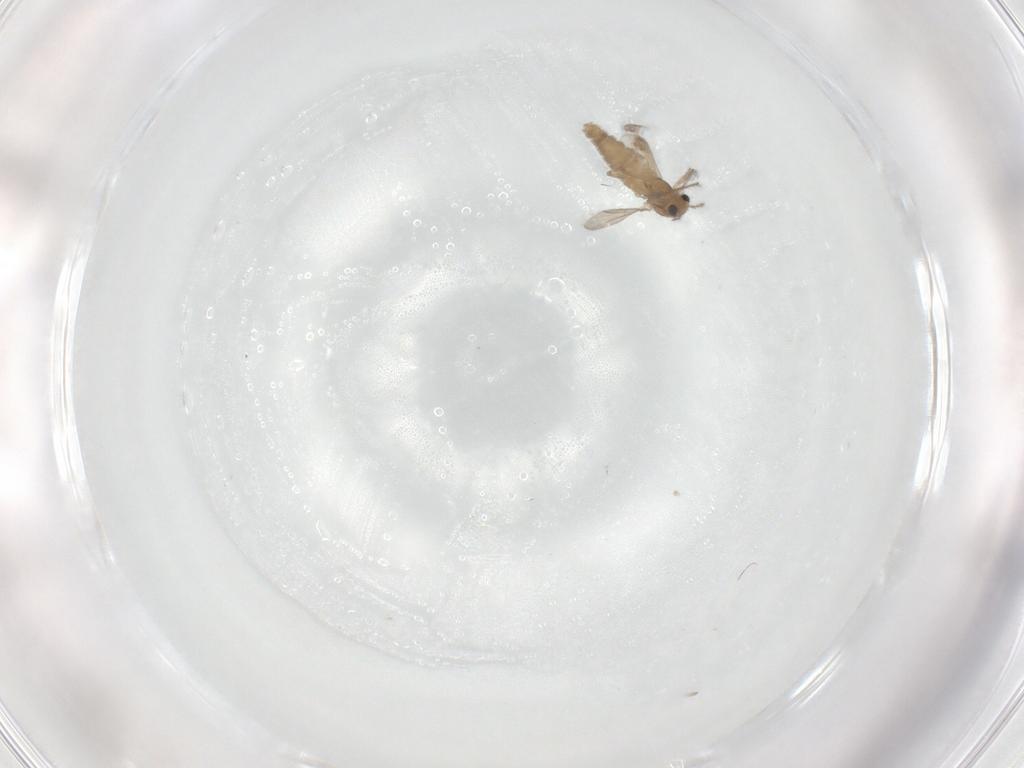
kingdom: Animalia
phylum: Arthropoda
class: Insecta
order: Diptera
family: Chironomidae
